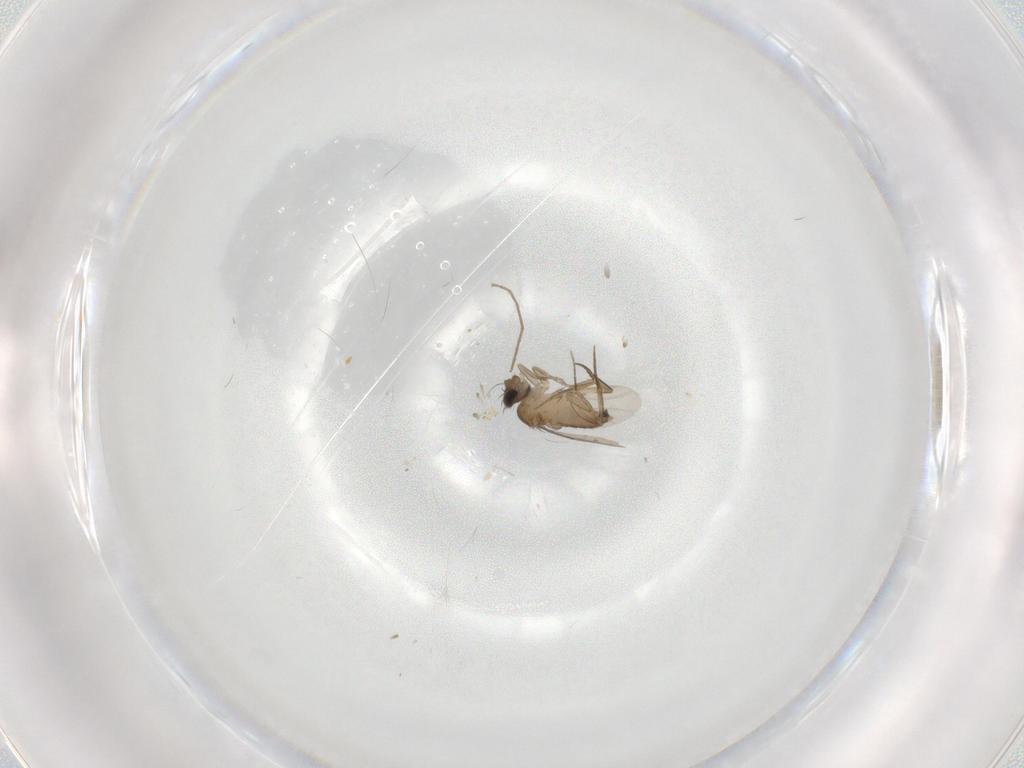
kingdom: Animalia
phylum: Arthropoda
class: Insecta
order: Diptera
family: Phoridae
